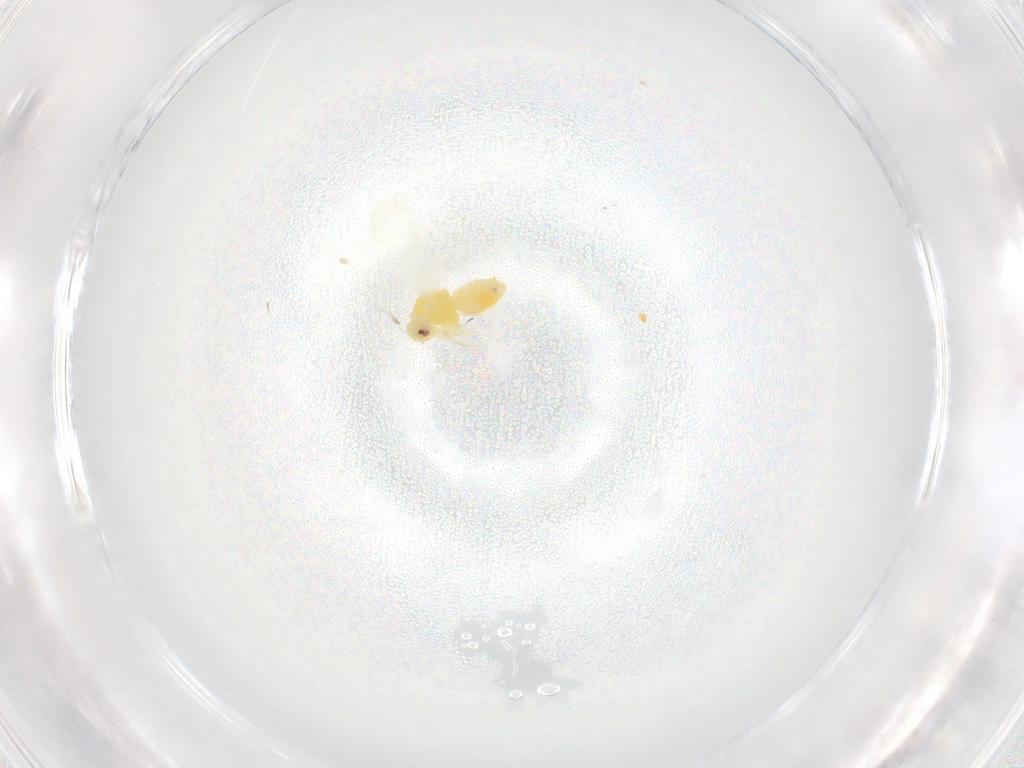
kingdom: Animalia
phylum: Arthropoda
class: Insecta
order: Hemiptera
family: Aleyrodidae
